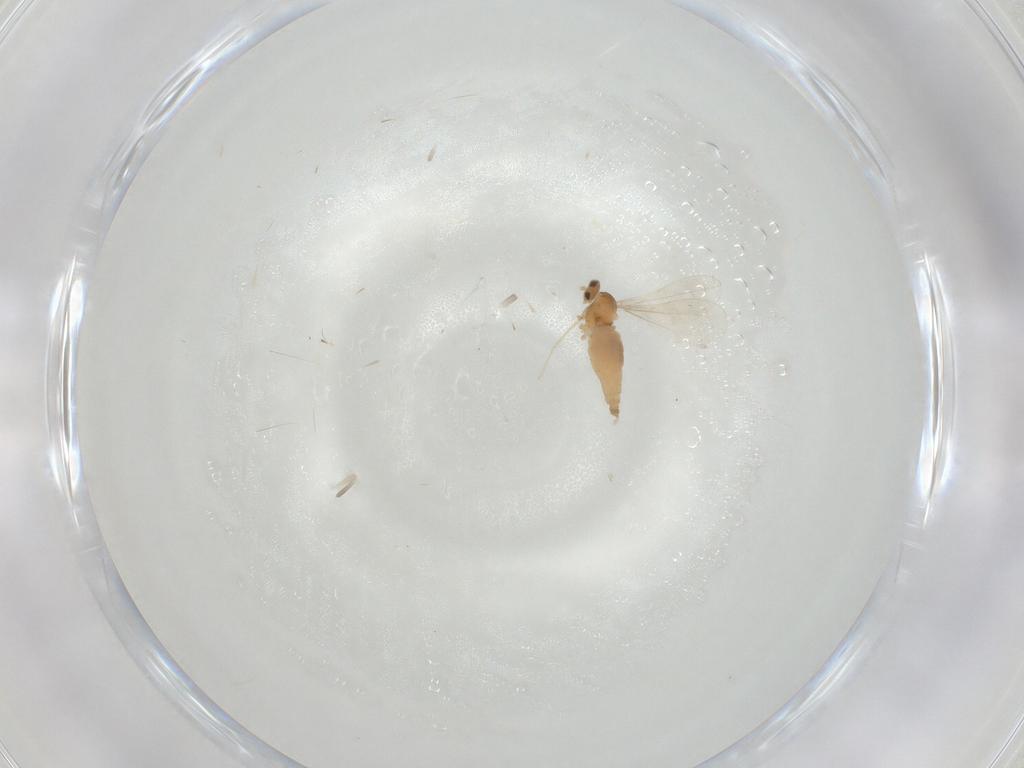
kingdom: Animalia
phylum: Arthropoda
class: Insecta
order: Diptera
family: Cecidomyiidae
